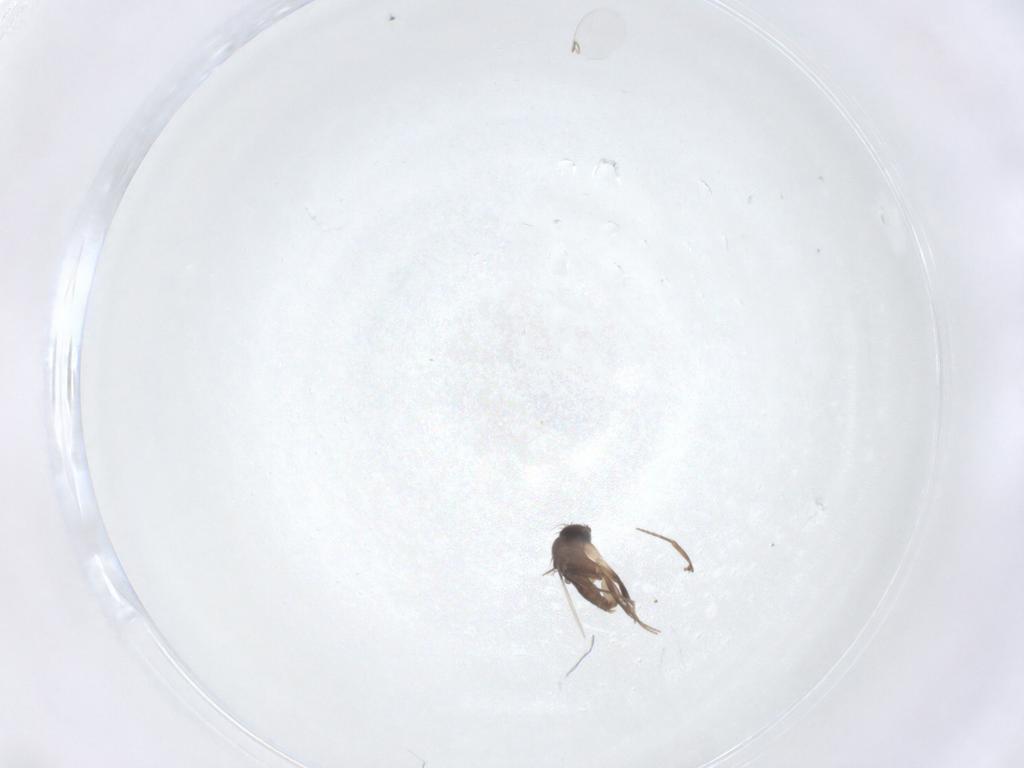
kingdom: Animalia
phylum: Arthropoda
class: Insecta
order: Diptera
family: Phoridae
